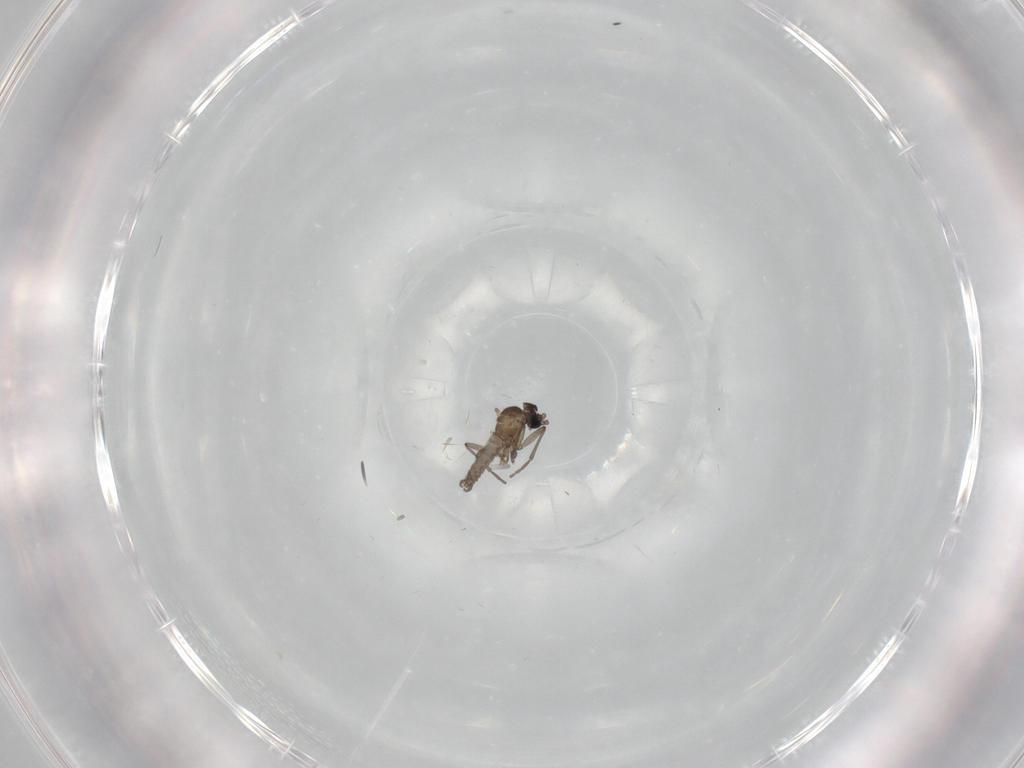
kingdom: Animalia
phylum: Arthropoda
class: Insecta
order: Diptera
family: Sciaridae
